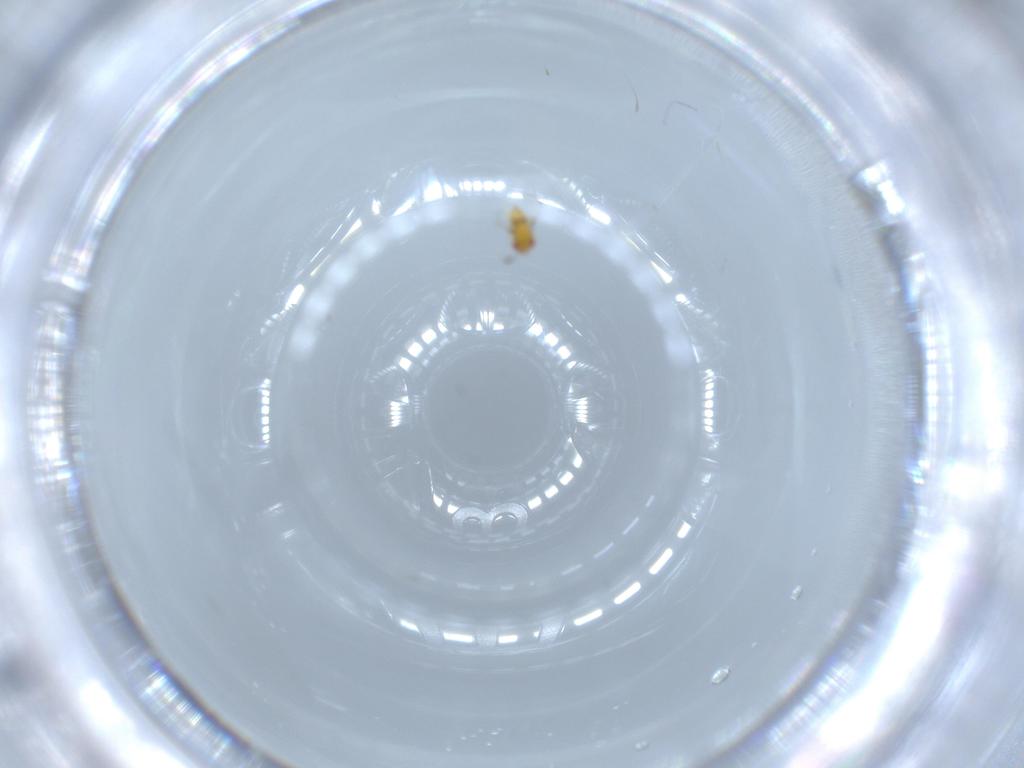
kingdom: Animalia
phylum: Arthropoda
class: Insecta
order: Hymenoptera
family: Trichogrammatidae
